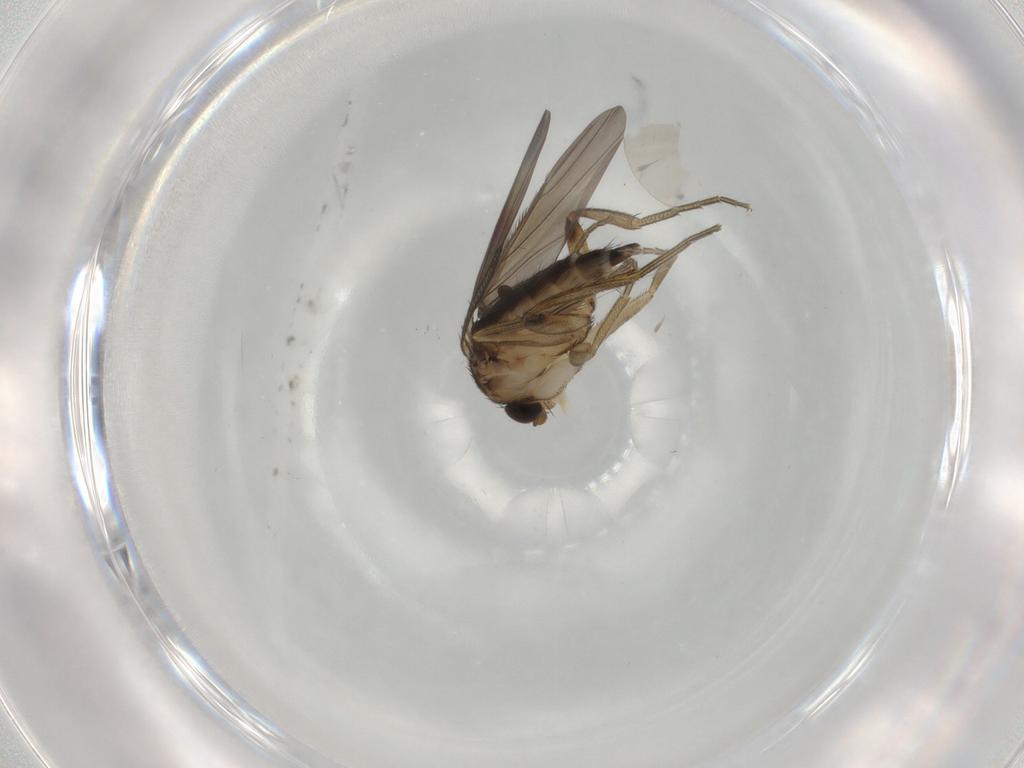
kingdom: Animalia
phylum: Arthropoda
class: Insecta
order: Diptera
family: Phoridae
